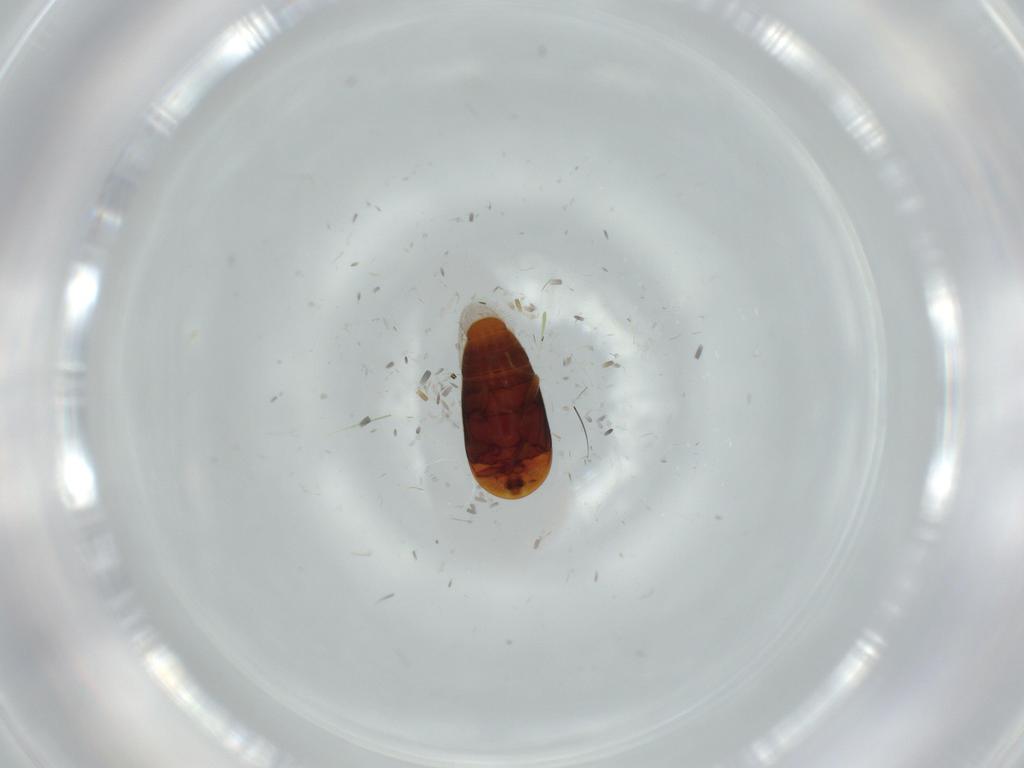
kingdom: Animalia
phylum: Arthropoda
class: Insecta
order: Coleoptera
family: Corylophidae
